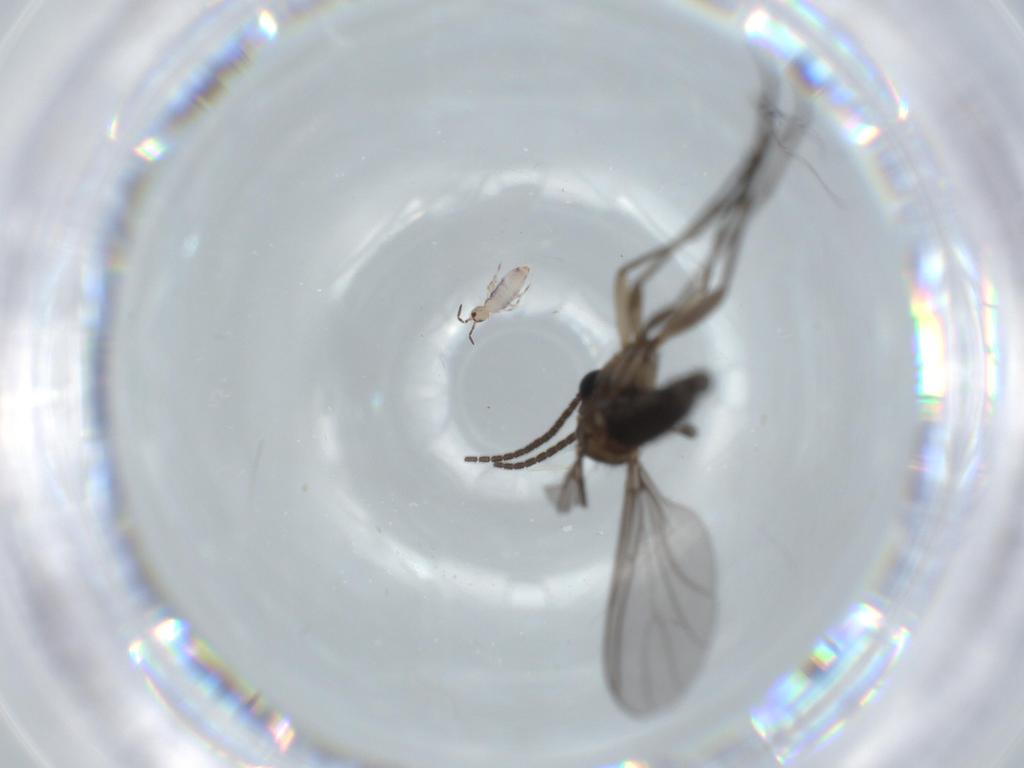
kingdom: Animalia
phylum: Arthropoda
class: Insecta
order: Diptera
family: Sciaridae
